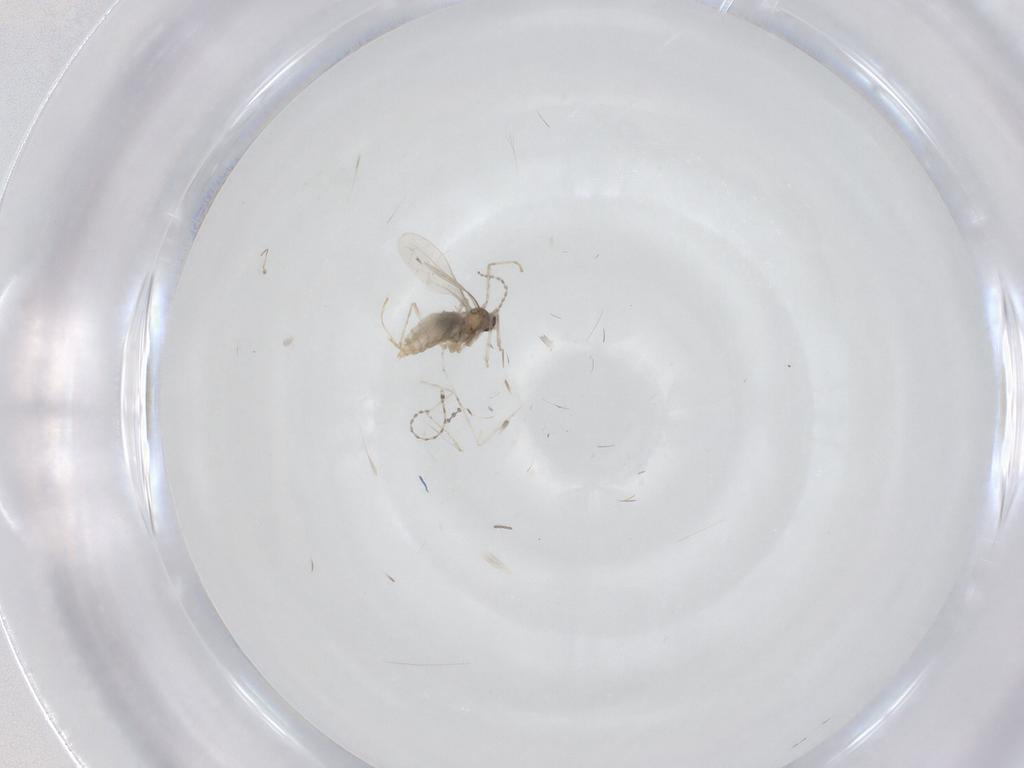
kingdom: Animalia
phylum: Arthropoda
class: Insecta
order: Diptera
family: Cecidomyiidae
